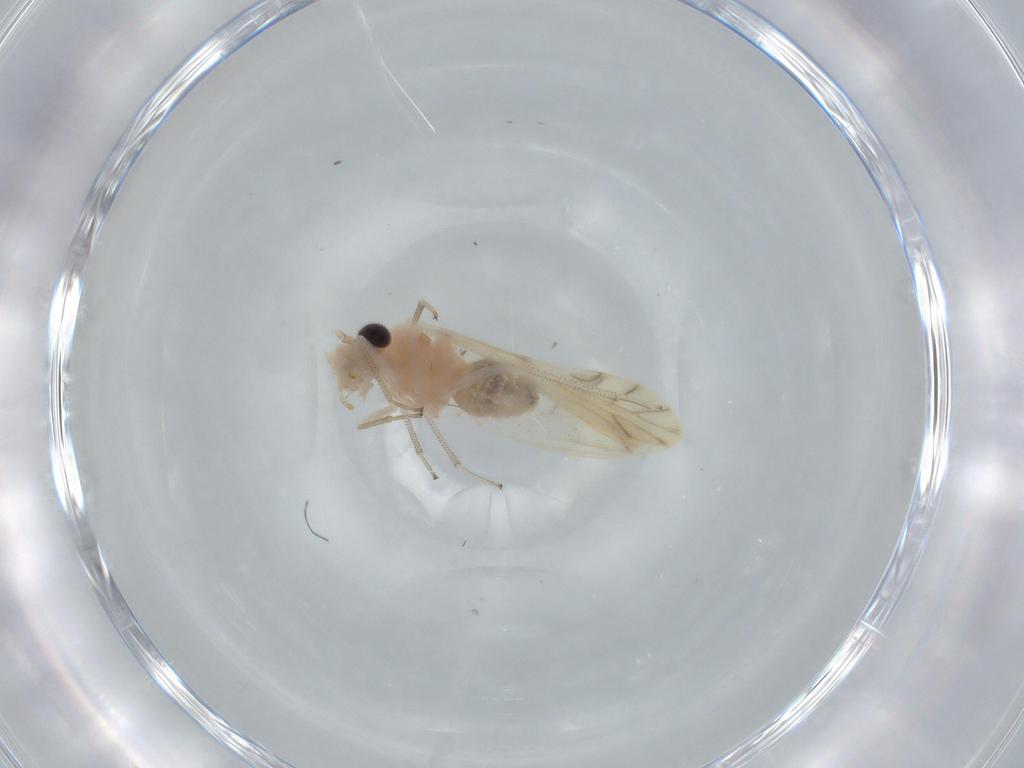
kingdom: Animalia
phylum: Arthropoda
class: Insecta
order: Psocodea
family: Caeciliusidae
